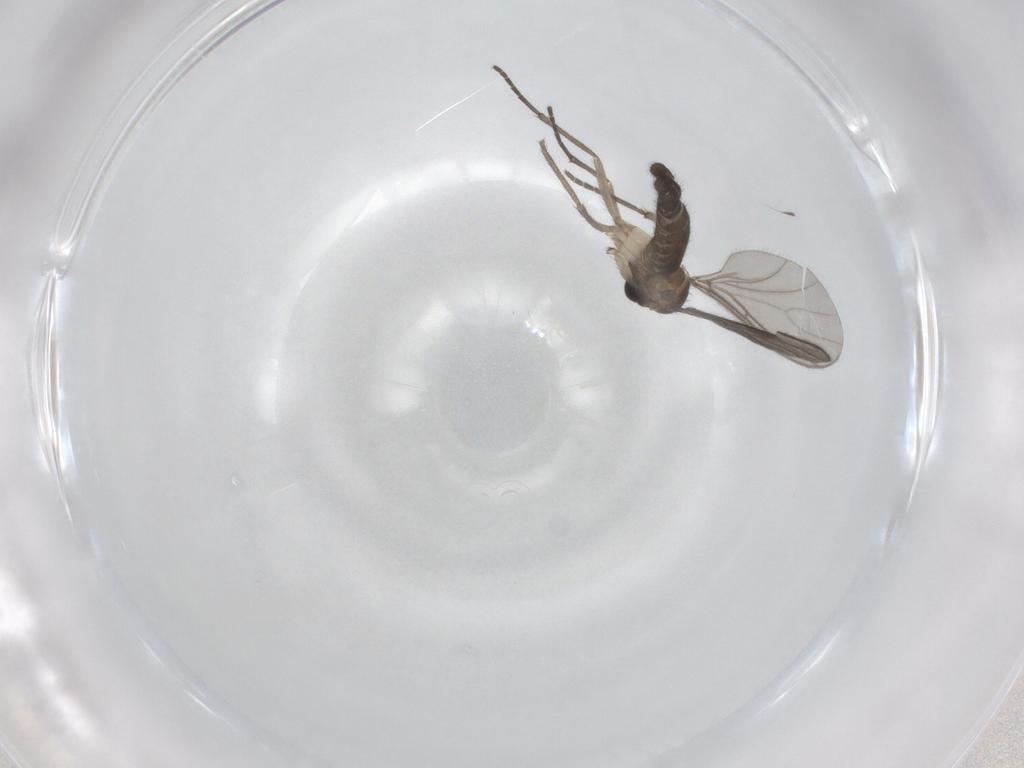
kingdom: Animalia
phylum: Arthropoda
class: Insecta
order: Diptera
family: Sciaridae
